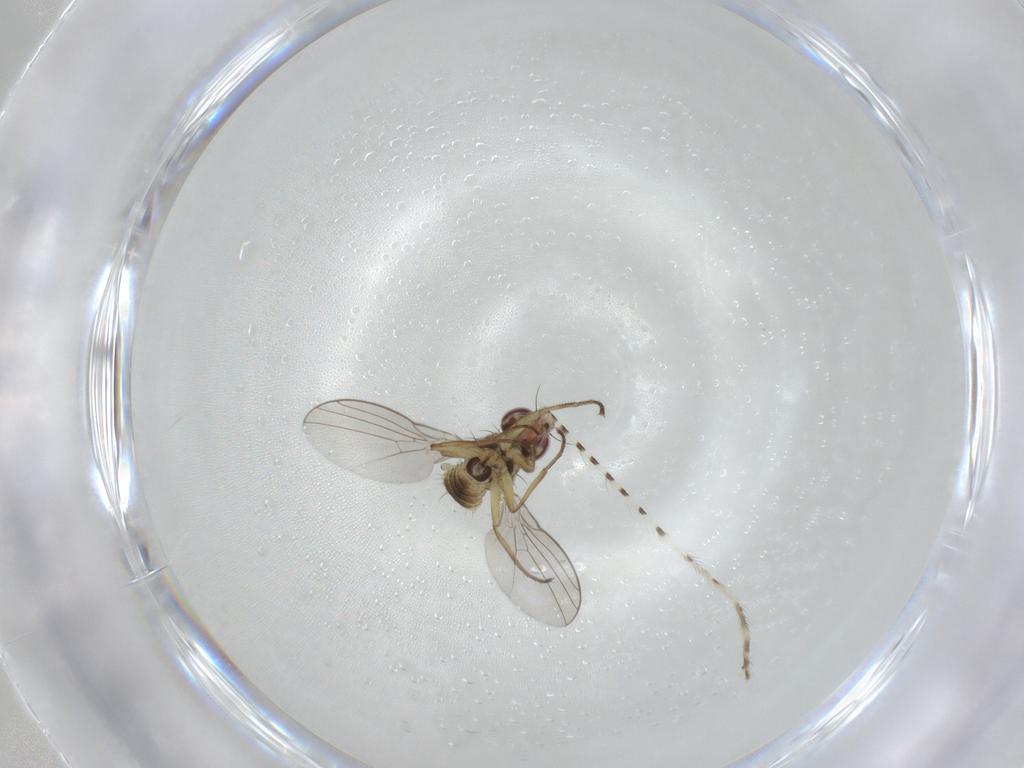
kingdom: Animalia
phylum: Arthropoda
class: Insecta
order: Diptera
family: Agromyzidae
